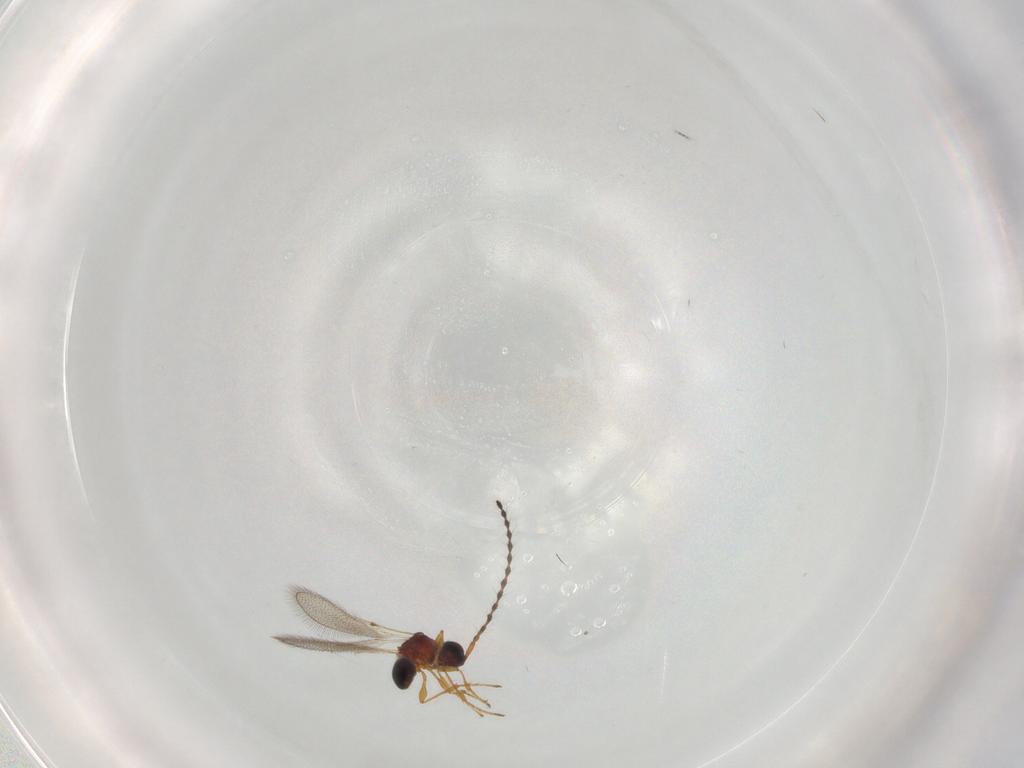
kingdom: Animalia
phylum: Arthropoda
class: Insecta
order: Hymenoptera
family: Diapriidae
